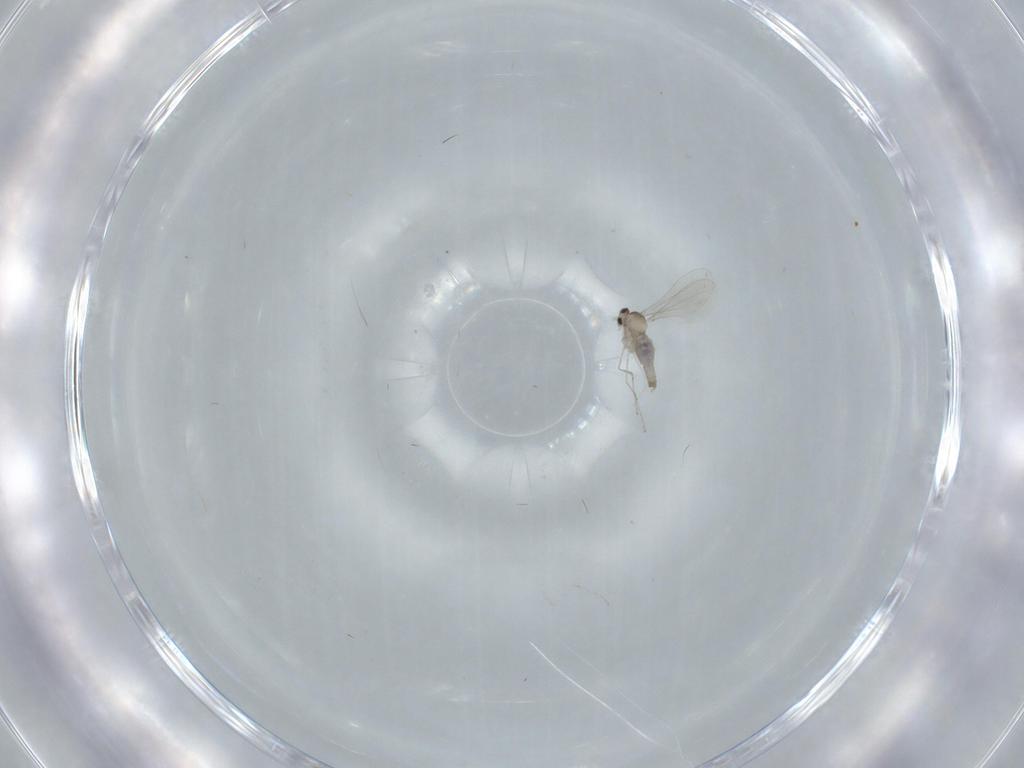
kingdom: Animalia
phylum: Arthropoda
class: Insecta
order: Diptera
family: Cecidomyiidae
